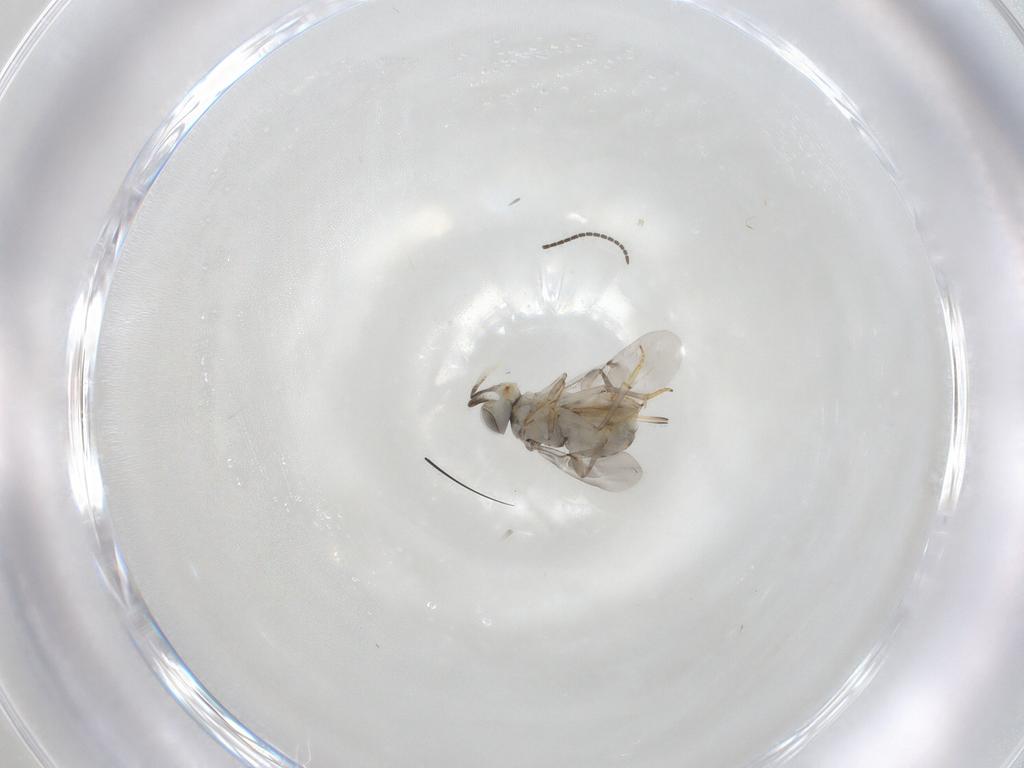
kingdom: Animalia
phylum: Arthropoda
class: Insecta
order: Hymenoptera
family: Encyrtidae
